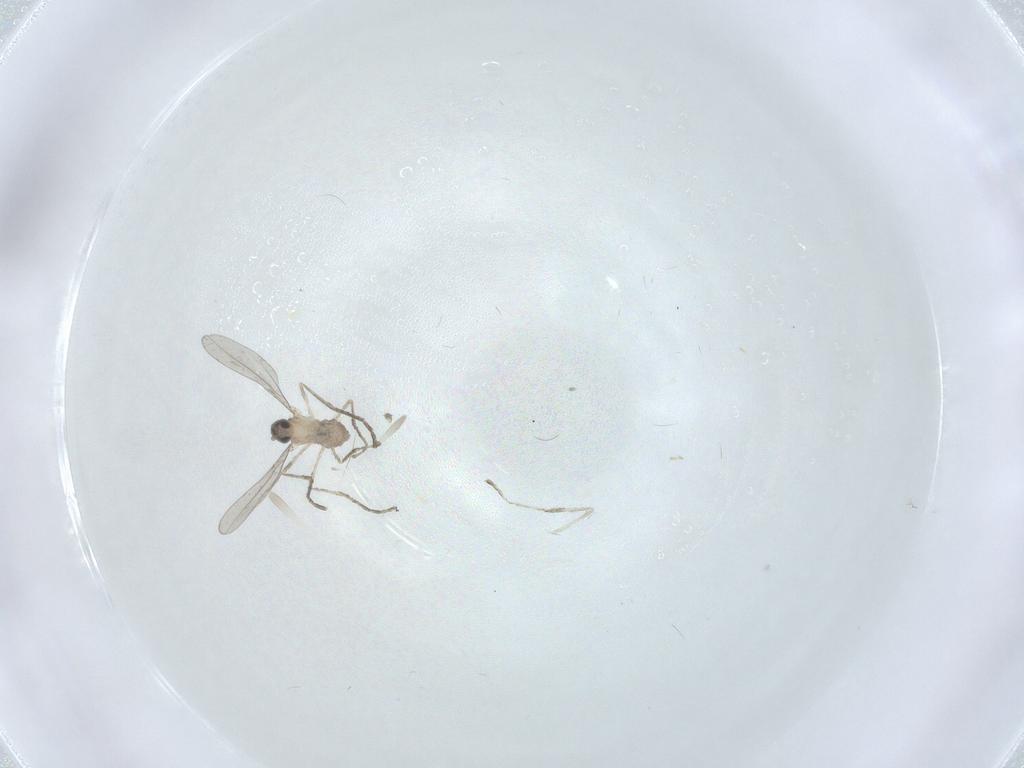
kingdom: Animalia
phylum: Arthropoda
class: Insecta
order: Diptera
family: Cecidomyiidae
